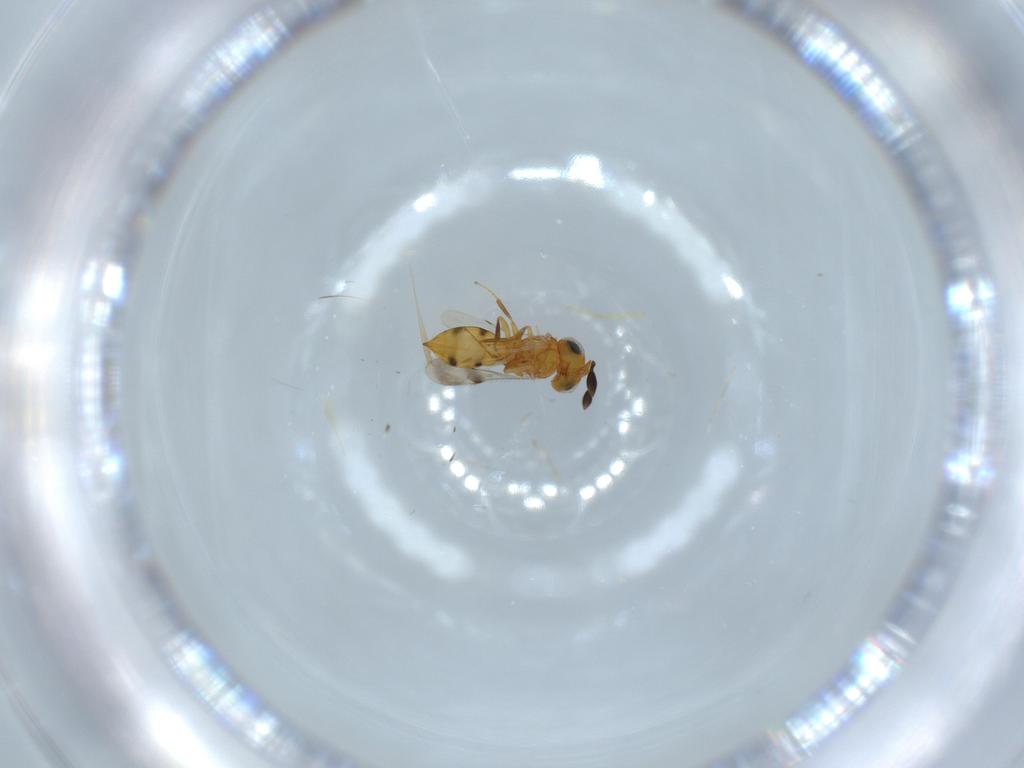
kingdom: Animalia
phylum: Arthropoda
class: Insecta
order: Hymenoptera
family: Scelionidae
